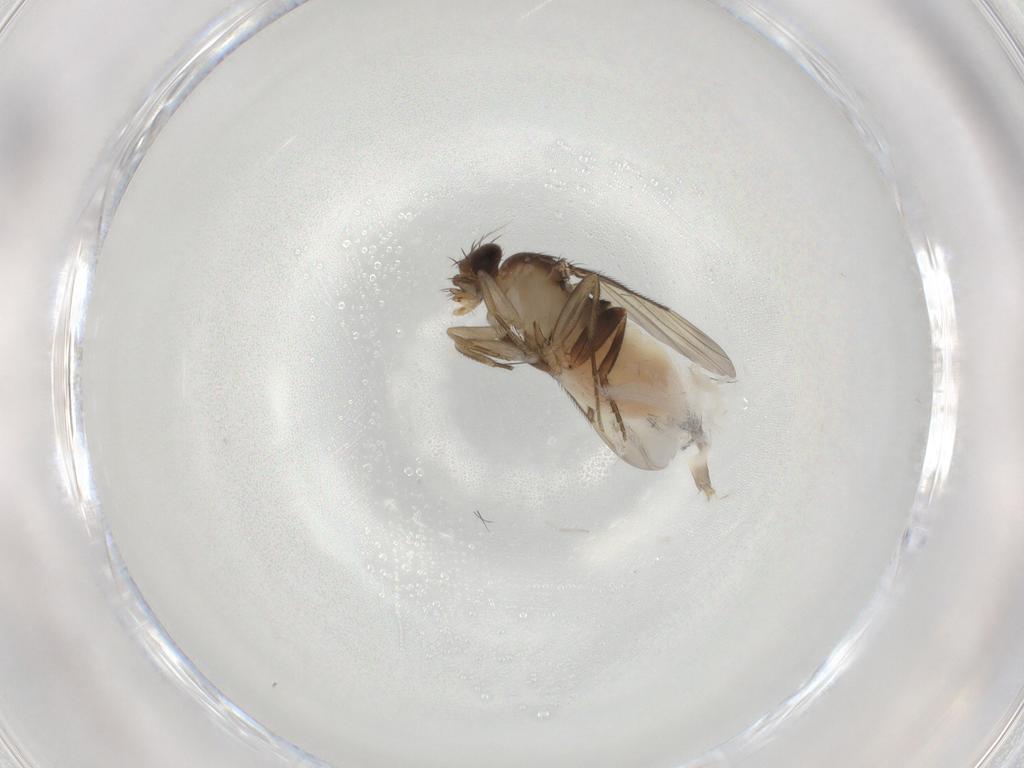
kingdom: Animalia
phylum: Arthropoda
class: Insecta
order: Diptera
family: Phoridae
